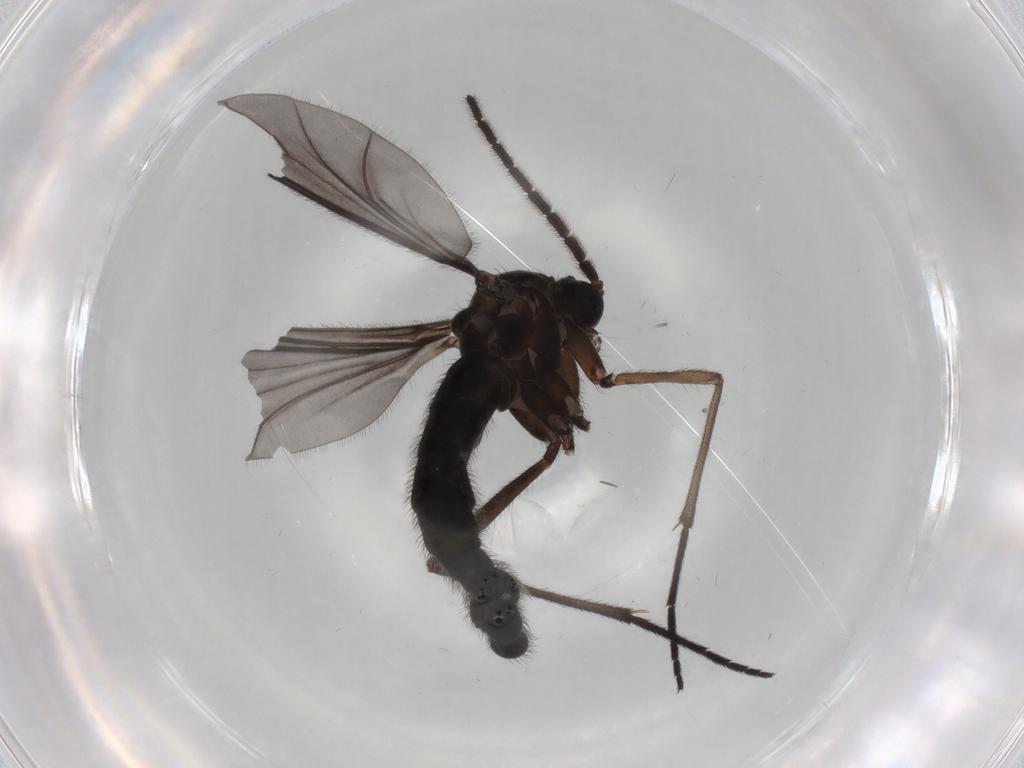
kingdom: Animalia
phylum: Arthropoda
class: Insecta
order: Diptera
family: Sciaridae
